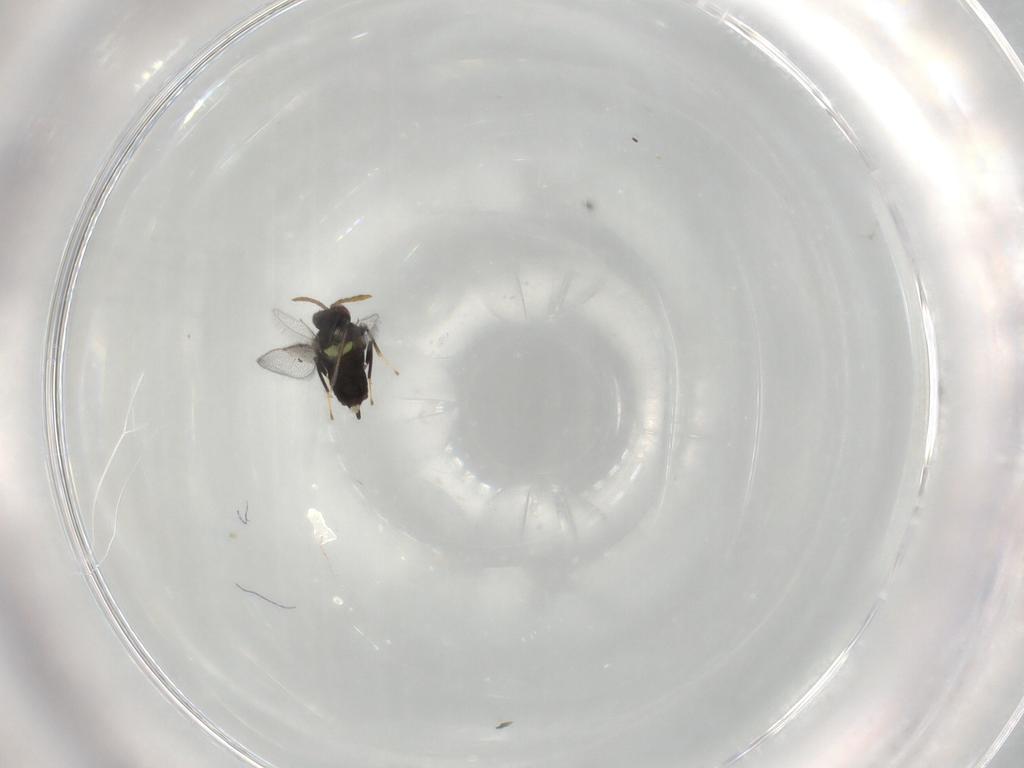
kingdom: Animalia
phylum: Arthropoda
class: Insecta
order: Hymenoptera
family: Aphelinidae
